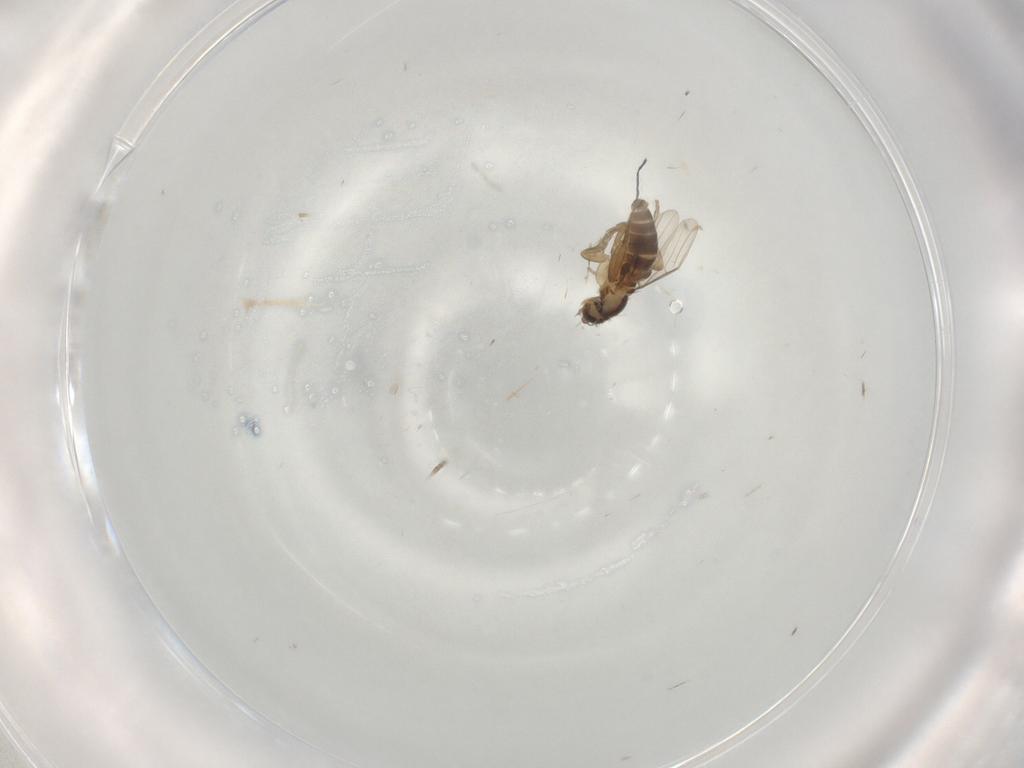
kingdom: Animalia
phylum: Arthropoda
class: Insecta
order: Diptera
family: Phoridae
